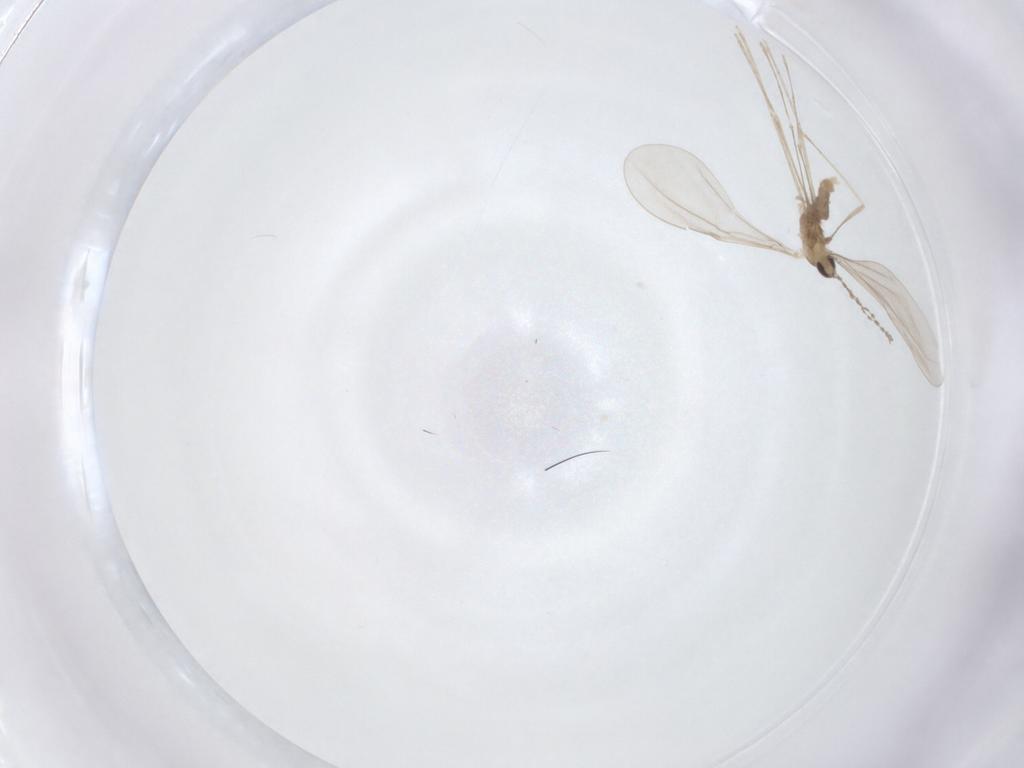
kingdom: Animalia
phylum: Arthropoda
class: Insecta
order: Diptera
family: Cecidomyiidae
